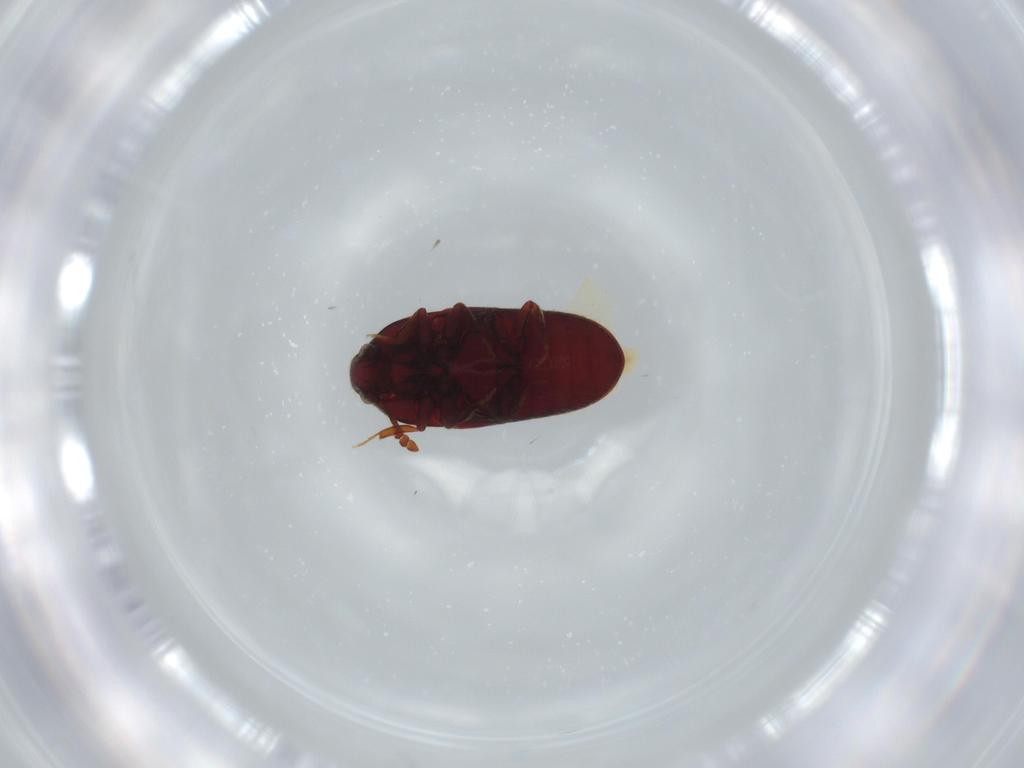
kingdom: Animalia
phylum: Arthropoda
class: Insecta
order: Coleoptera
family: Throscidae
